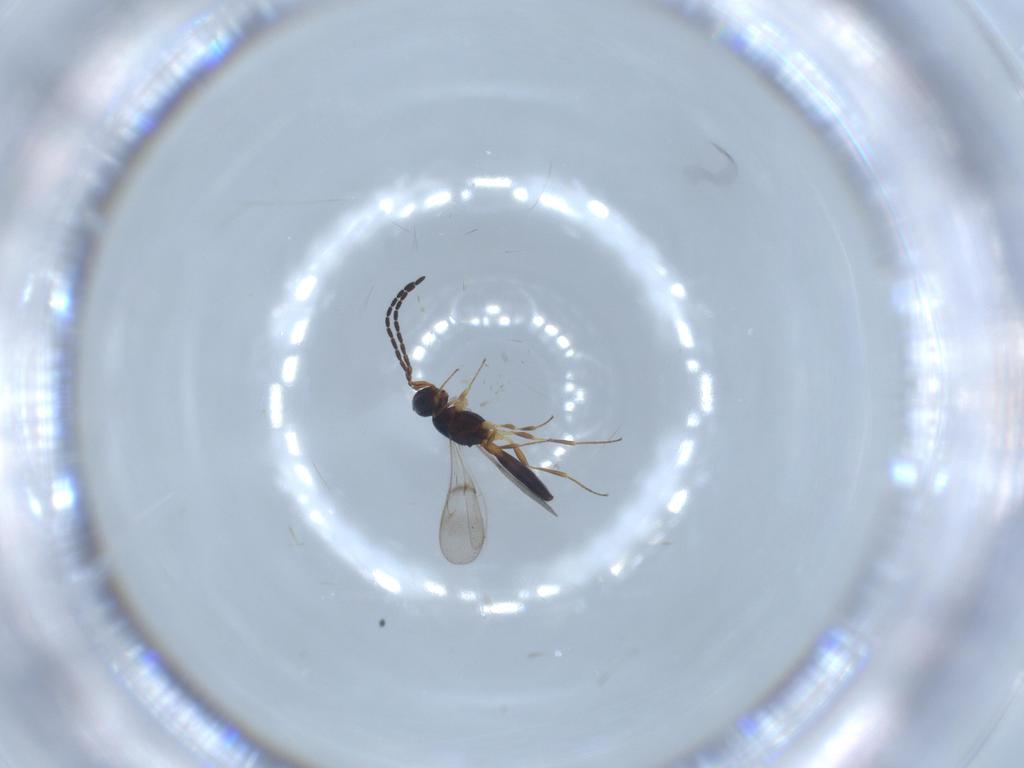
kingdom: Animalia
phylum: Arthropoda
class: Insecta
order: Hymenoptera
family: Scelionidae
